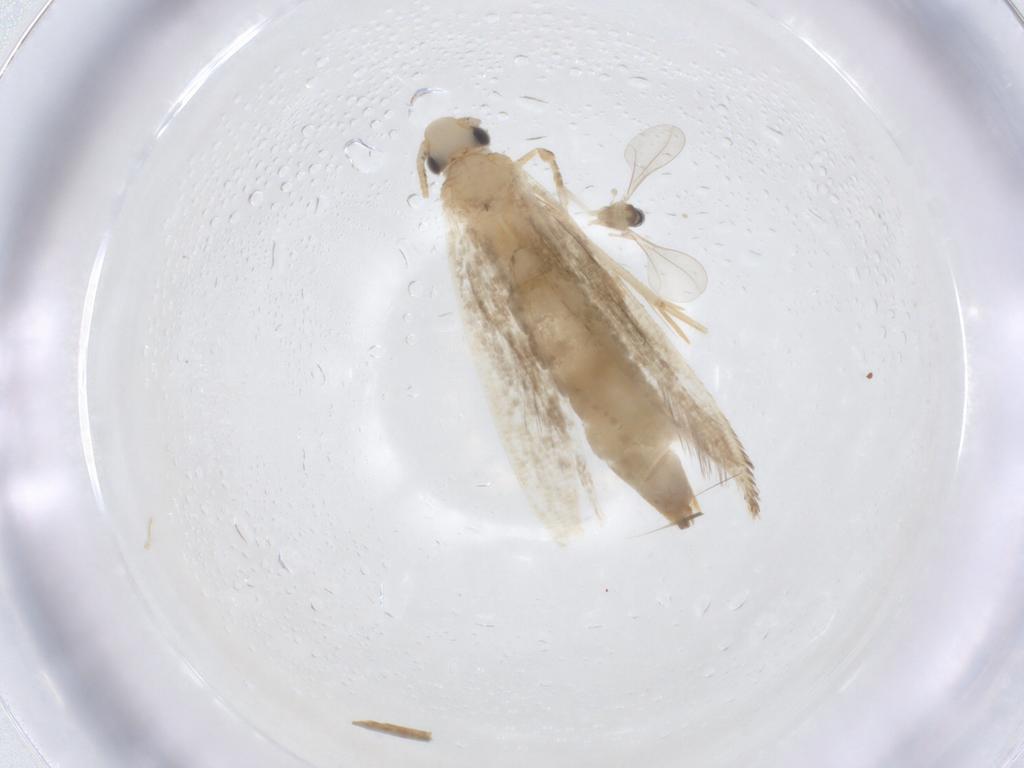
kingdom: Animalia
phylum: Arthropoda
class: Insecta
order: Lepidoptera
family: Tineidae
